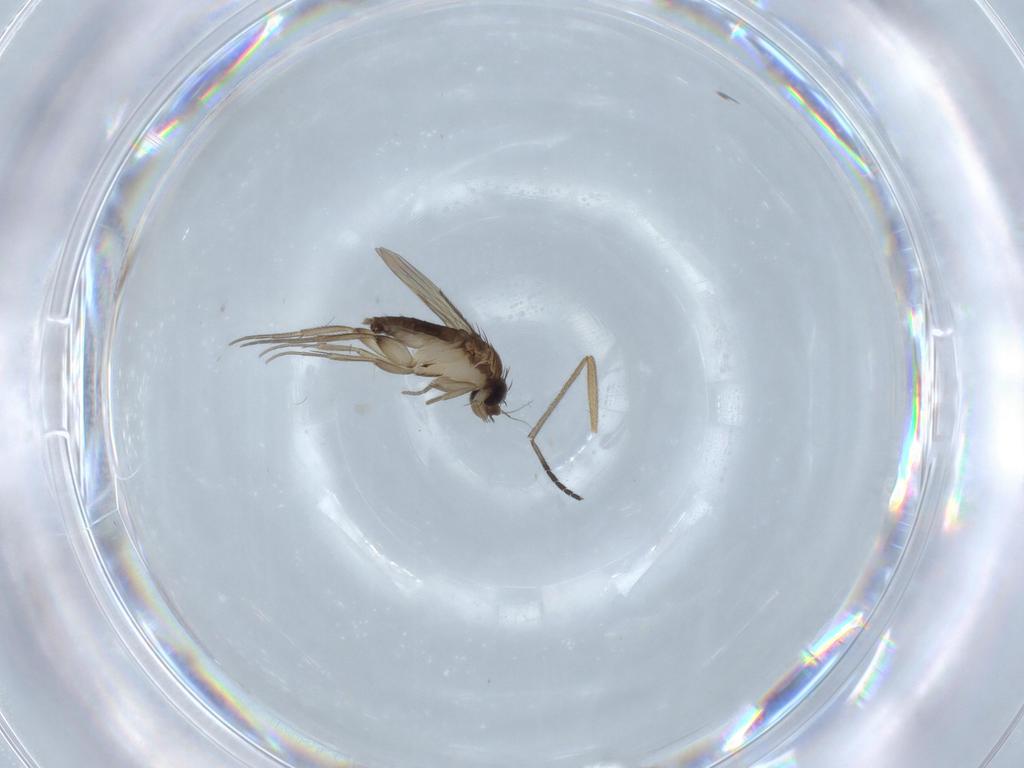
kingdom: Animalia
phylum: Arthropoda
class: Insecta
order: Diptera
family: Phoridae
